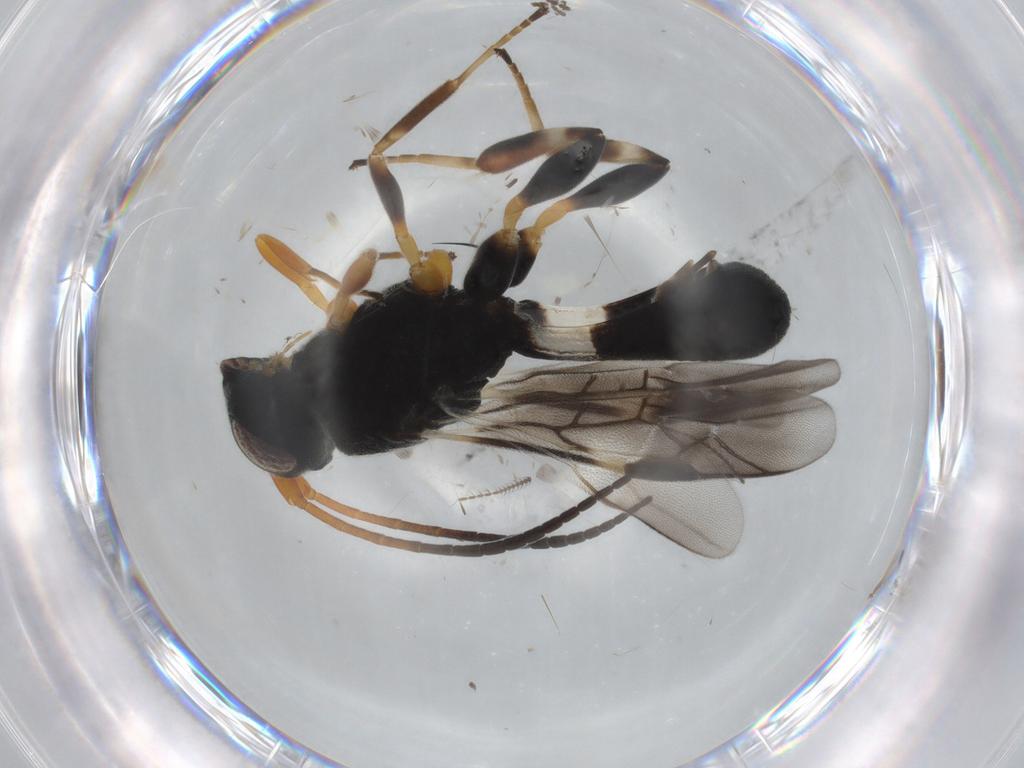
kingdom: Animalia
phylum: Arthropoda
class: Insecta
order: Hymenoptera
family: Braconidae
